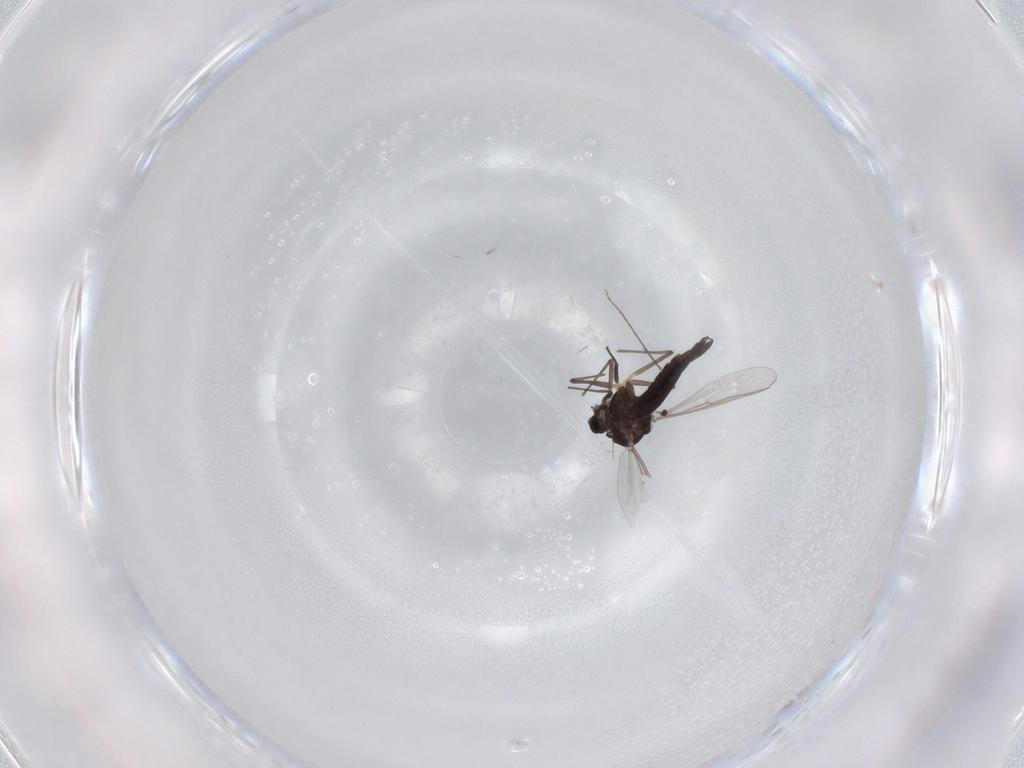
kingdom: Animalia
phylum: Arthropoda
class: Insecta
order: Diptera
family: Chironomidae
